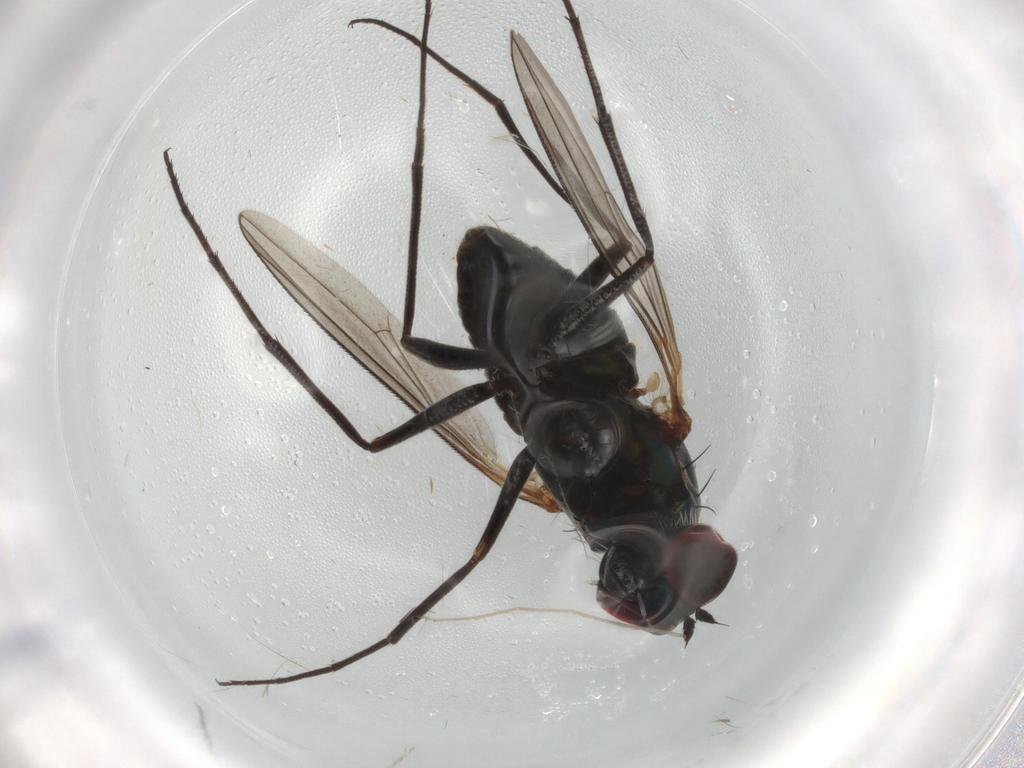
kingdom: Animalia
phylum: Arthropoda
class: Insecta
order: Diptera
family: Dolichopodidae
